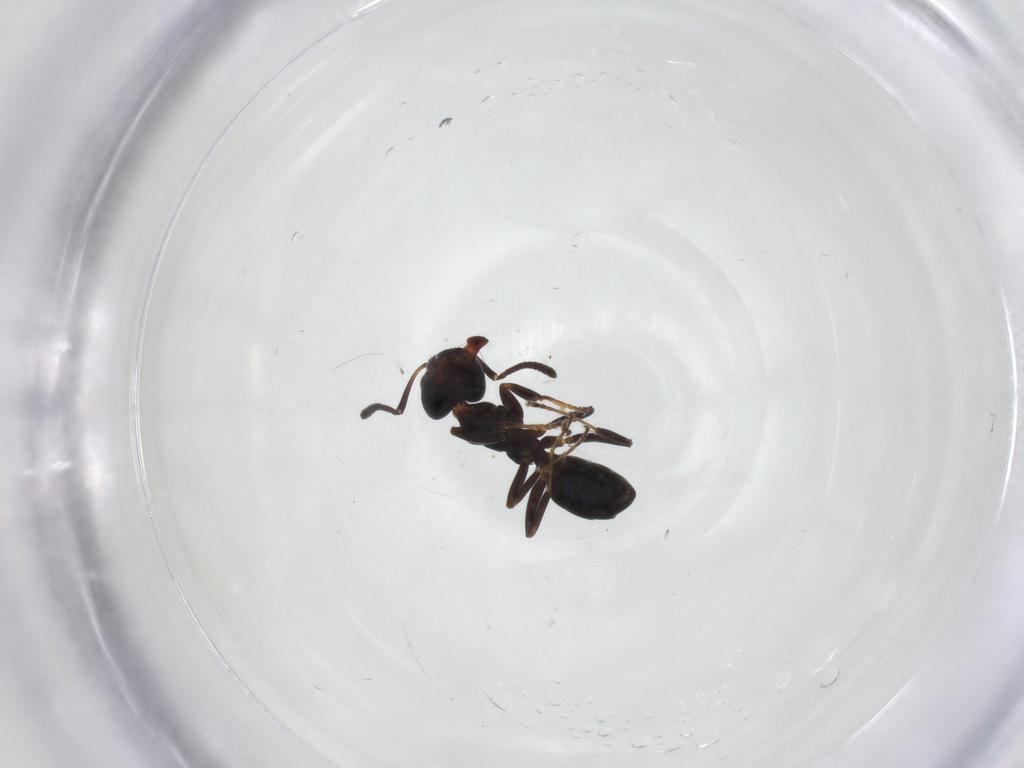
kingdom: Animalia
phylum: Arthropoda
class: Insecta
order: Hymenoptera
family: Formicidae
